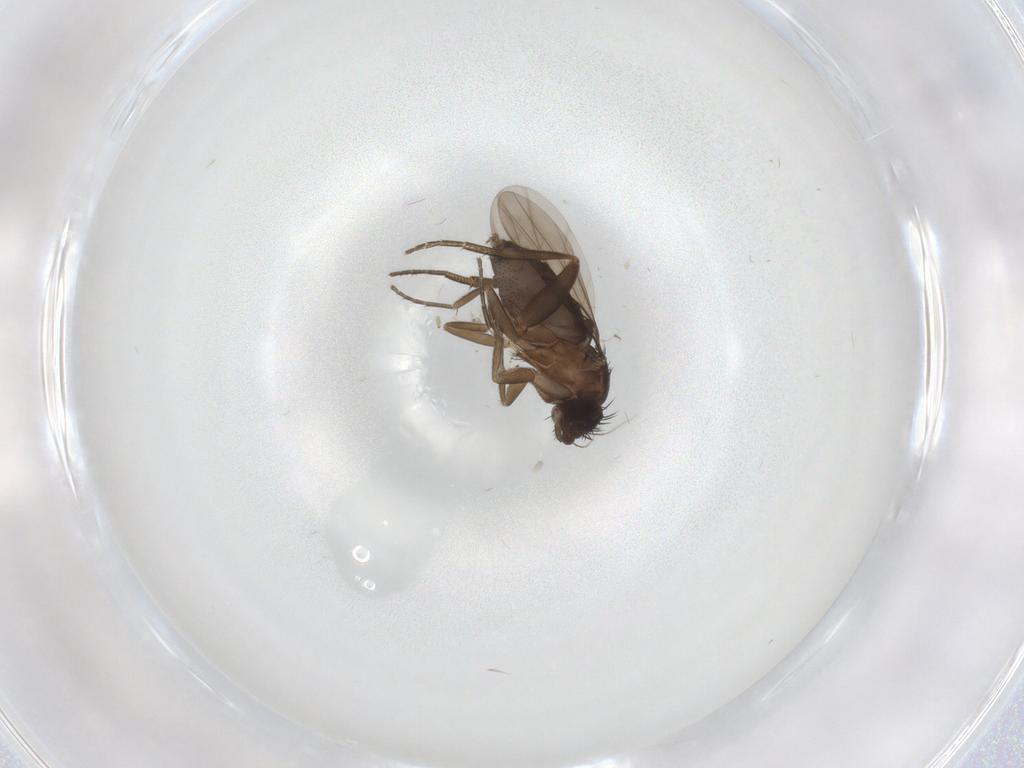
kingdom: Animalia
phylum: Arthropoda
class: Insecta
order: Diptera
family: Phoridae
